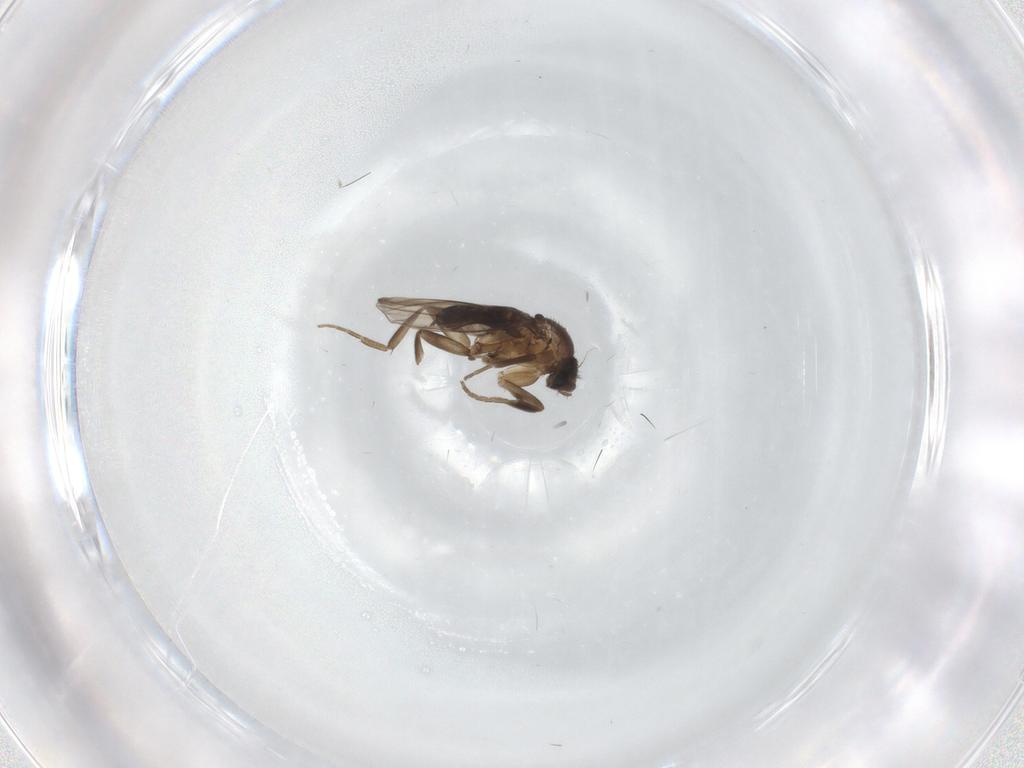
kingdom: Animalia
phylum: Arthropoda
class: Insecta
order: Diptera
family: Phoridae
